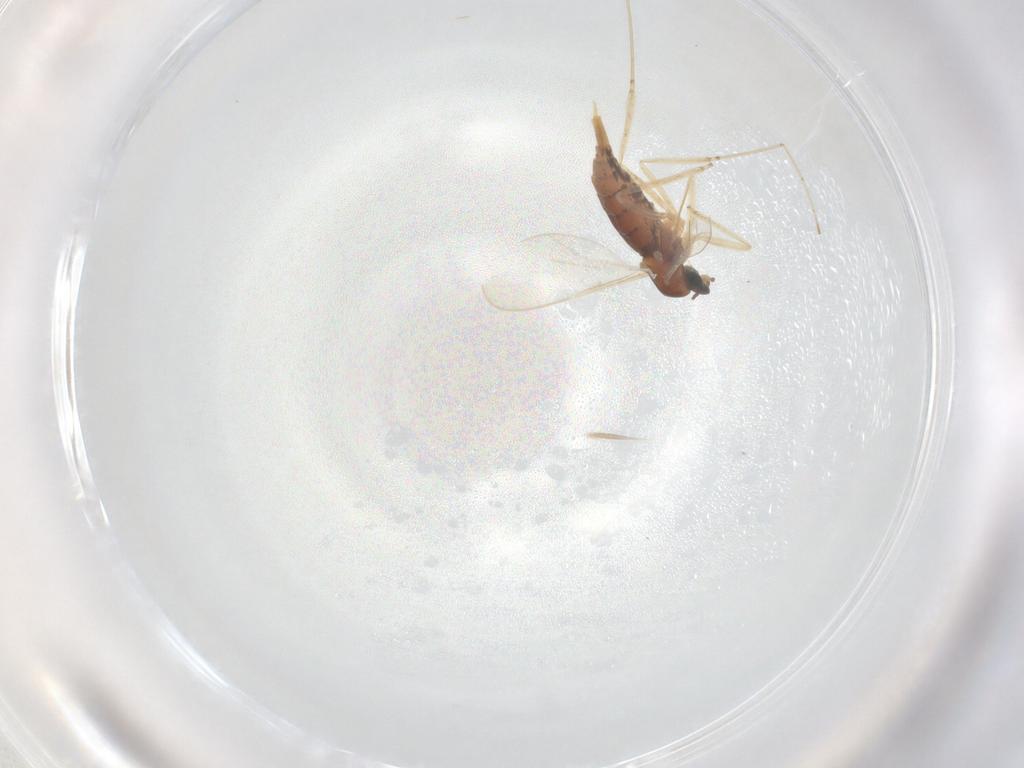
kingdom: Animalia
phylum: Arthropoda
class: Insecta
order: Diptera
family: Cecidomyiidae
